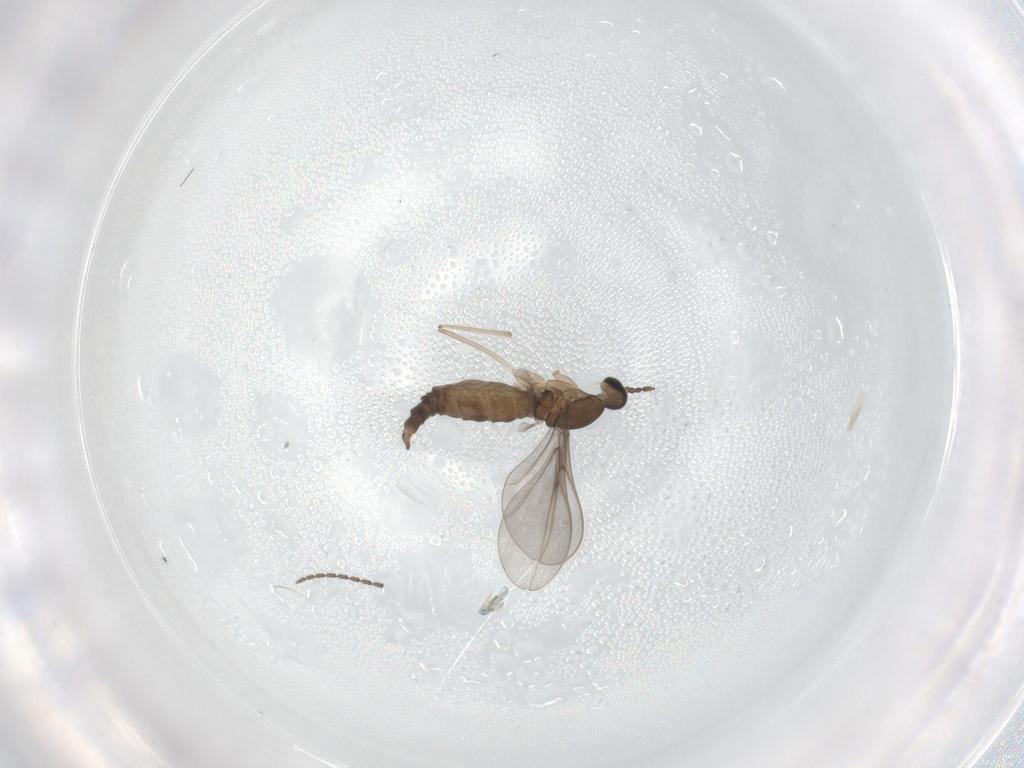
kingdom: Animalia
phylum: Arthropoda
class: Insecta
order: Diptera
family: Cecidomyiidae
